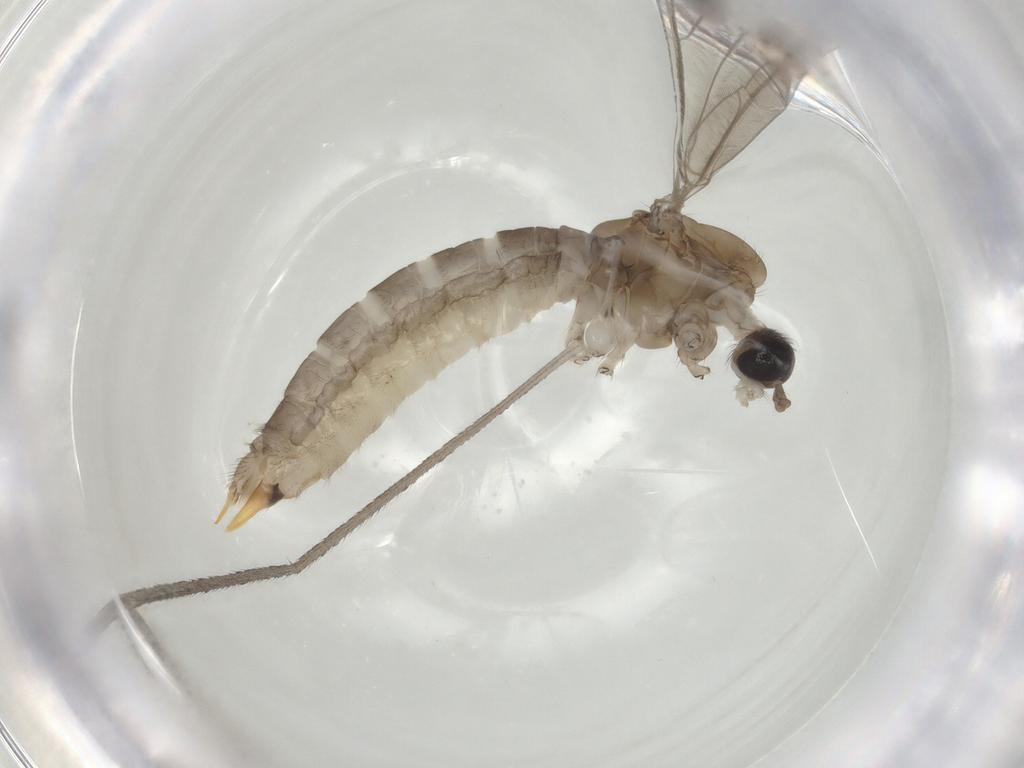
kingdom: Animalia
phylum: Arthropoda
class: Insecta
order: Diptera
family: Limoniidae
